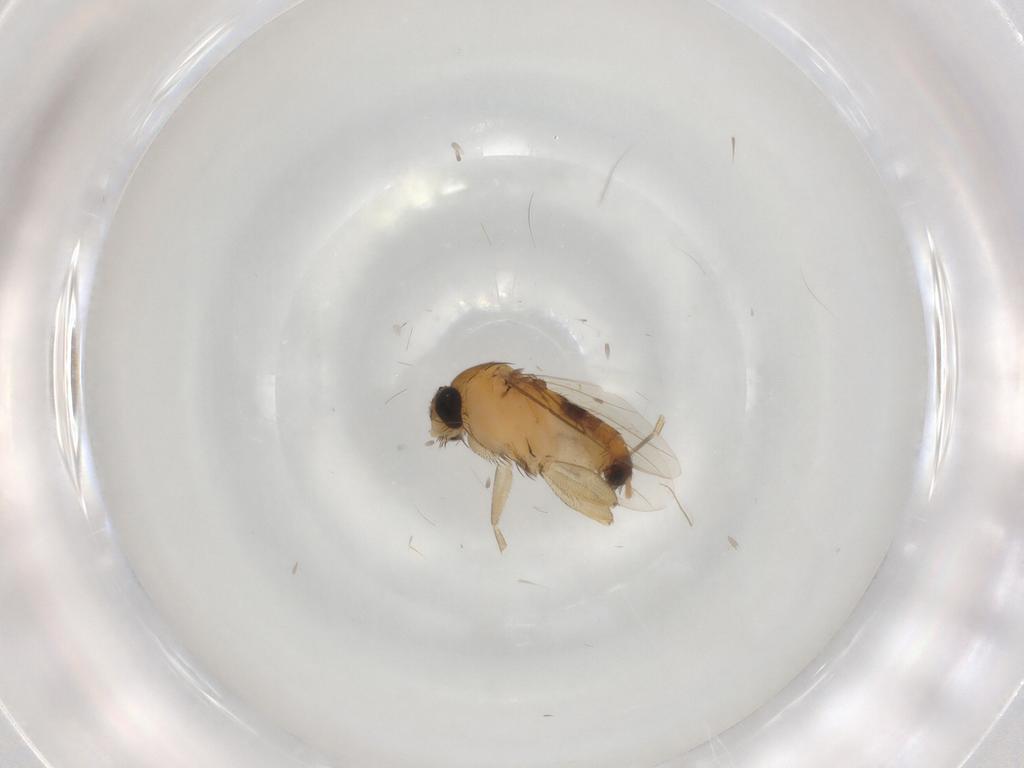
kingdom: Animalia
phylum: Arthropoda
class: Insecta
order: Diptera
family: Phoridae
